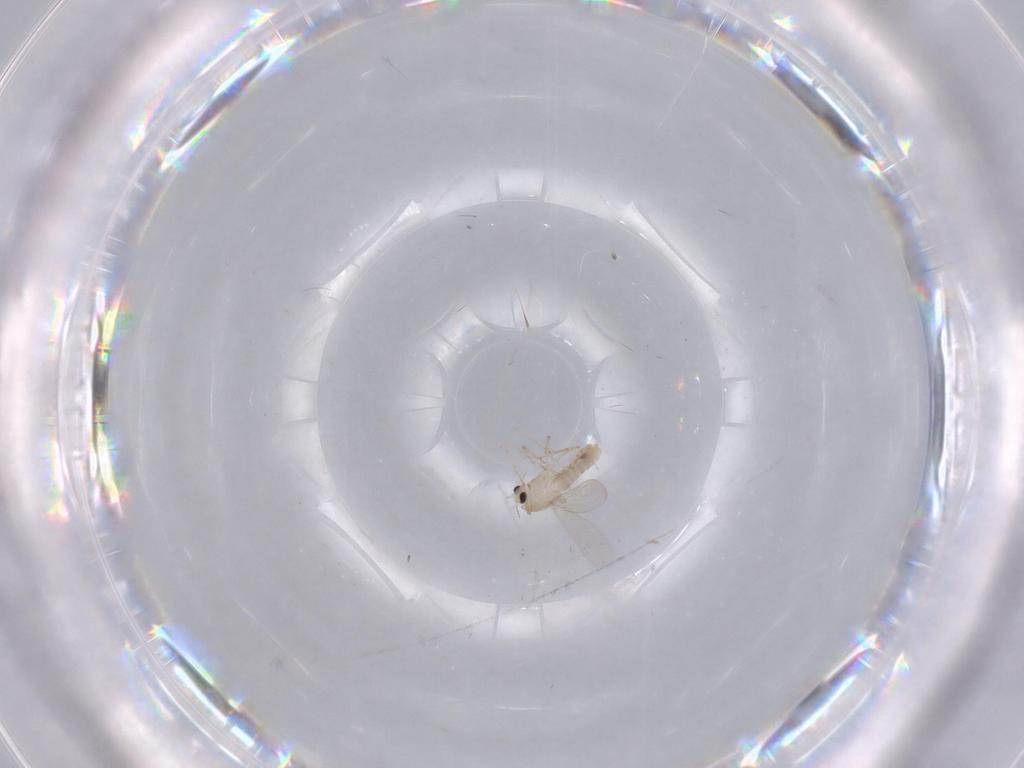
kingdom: Animalia
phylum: Arthropoda
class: Insecta
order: Diptera
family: Chironomidae
